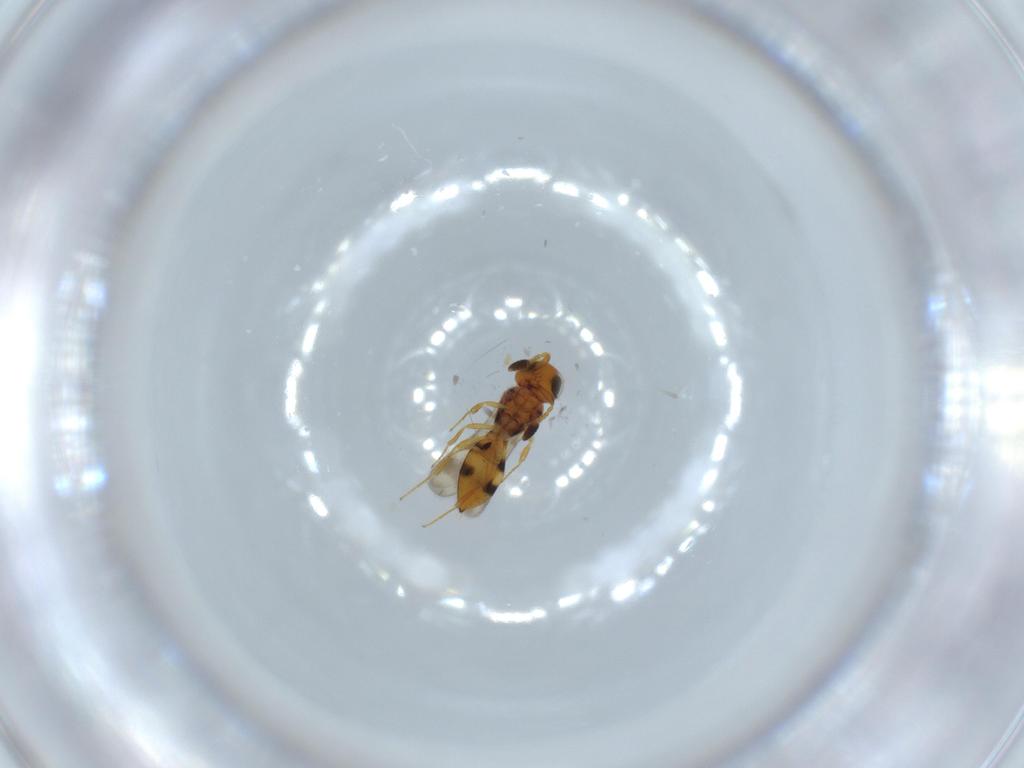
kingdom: Animalia
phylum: Arthropoda
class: Insecta
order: Hymenoptera
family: Scelionidae
